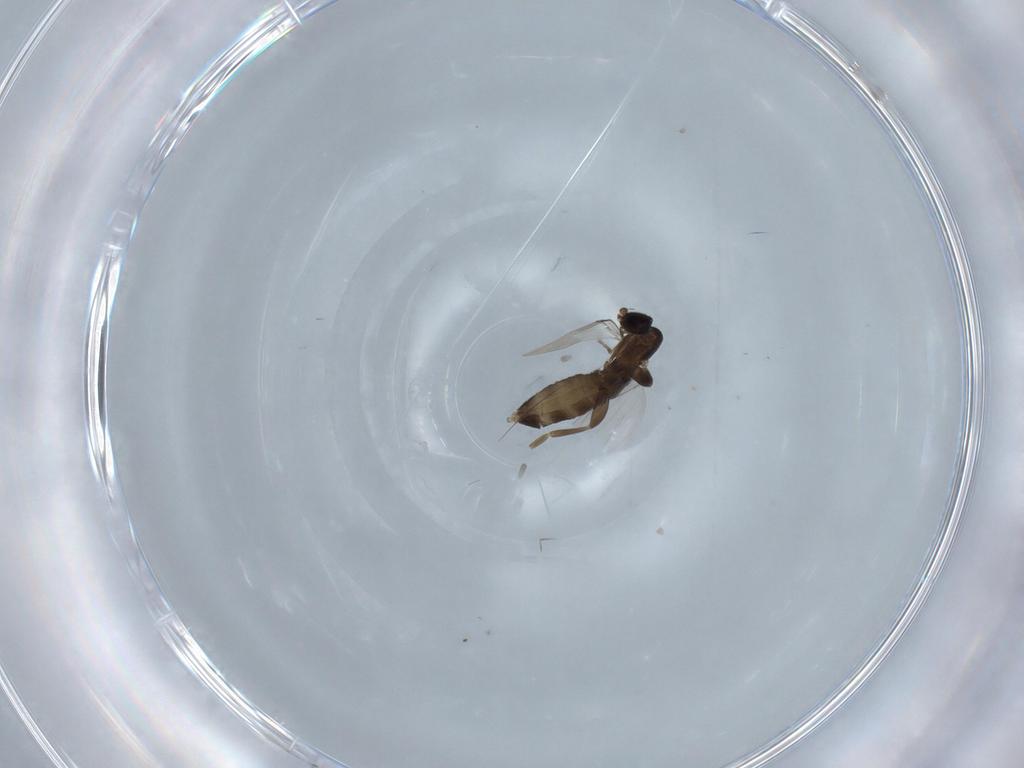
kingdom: Animalia
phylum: Arthropoda
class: Insecta
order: Diptera
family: Phoridae
